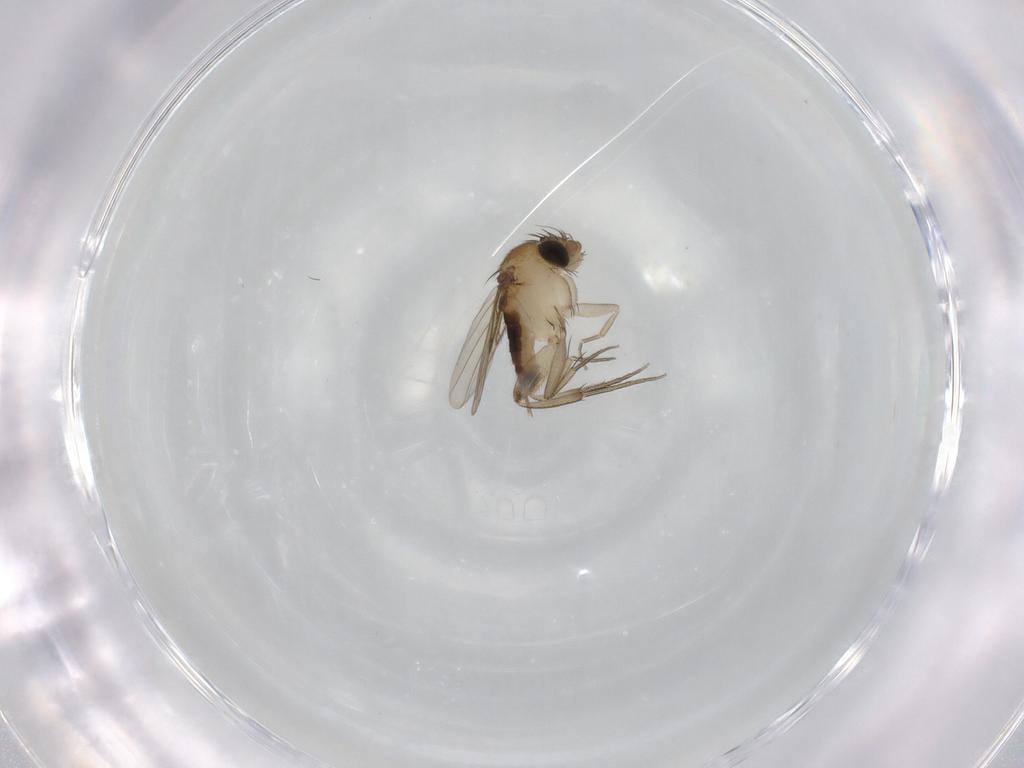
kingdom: Animalia
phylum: Arthropoda
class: Insecta
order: Diptera
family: Phoridae
